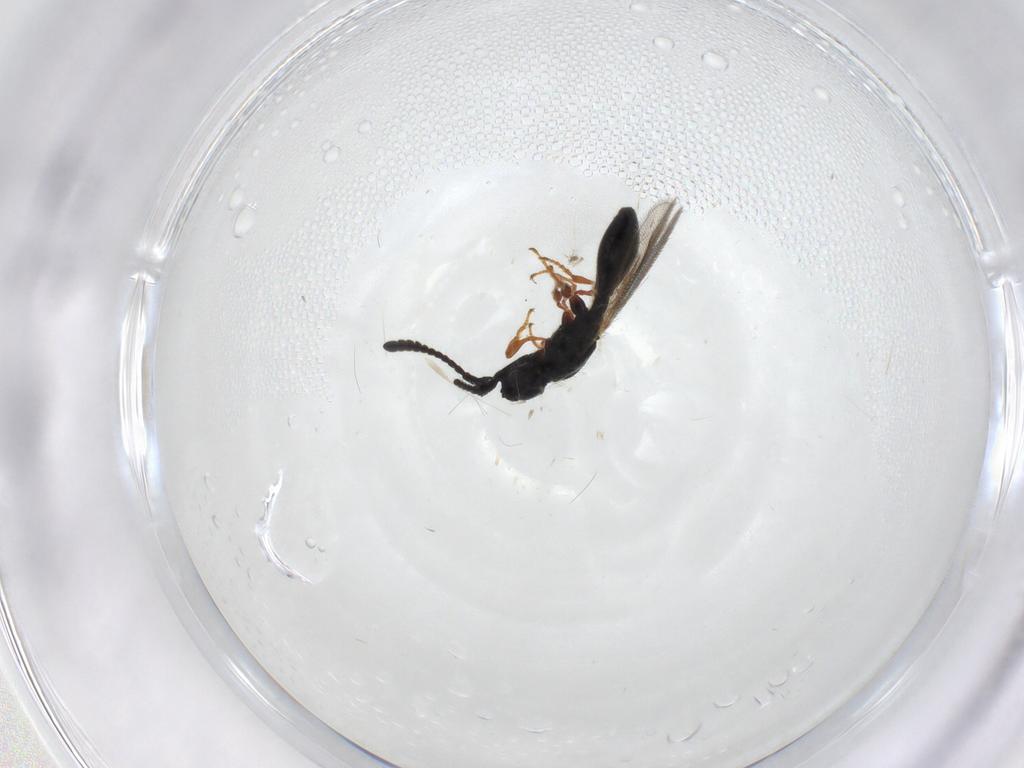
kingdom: Animalia
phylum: Arthropoda
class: Insecta
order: Hymenoptera
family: Diapriidae
